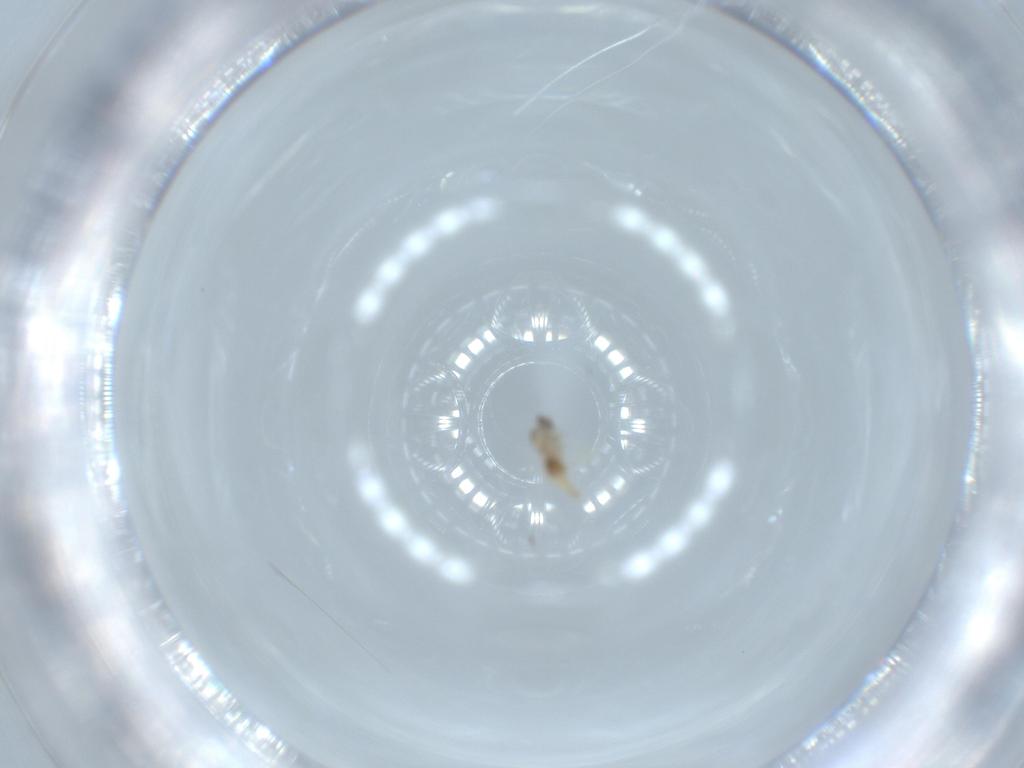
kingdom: Animalia
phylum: Arthropoda
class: Insecta
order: Diptera
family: Cecidomyiidae
